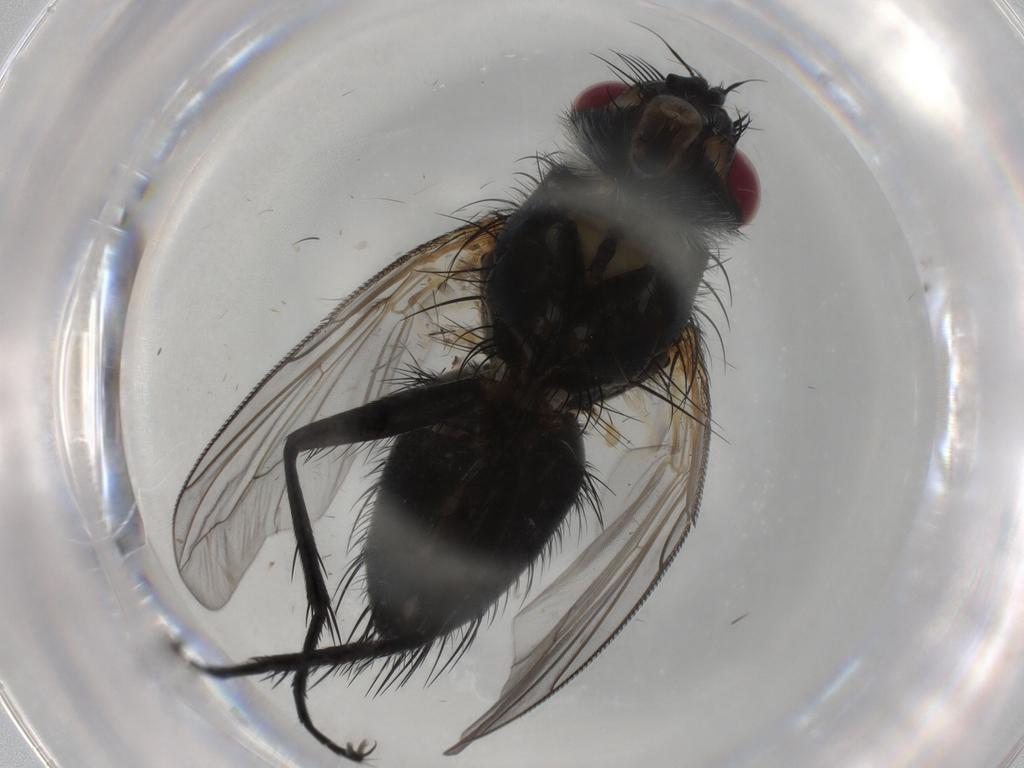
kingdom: Animalia
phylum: Arthropoda
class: Insecta
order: Diptera
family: Tachinidae
